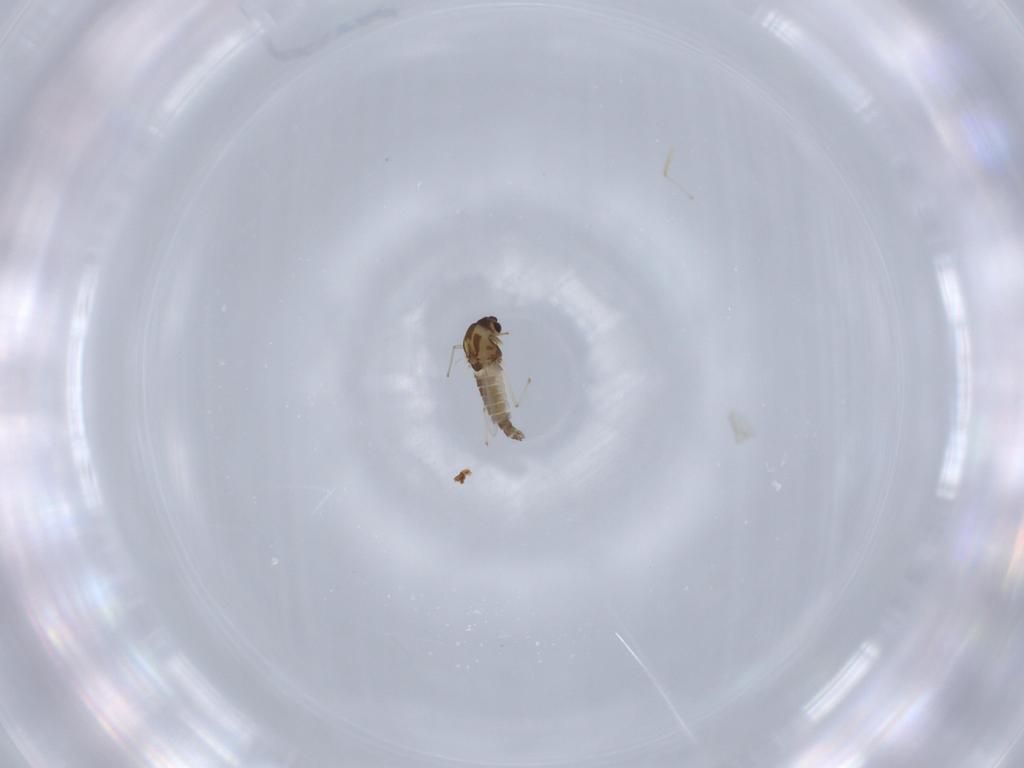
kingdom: Animalia
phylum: Arthropoda
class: Insecta
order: Diptera
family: Chironomidae
